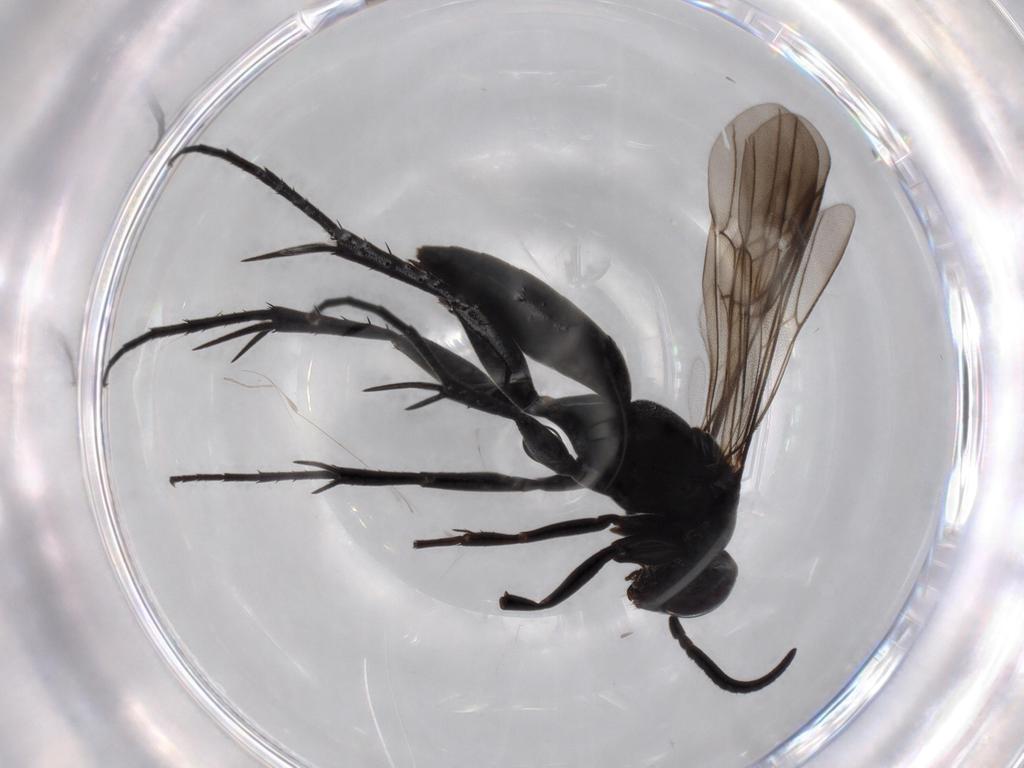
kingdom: Animalia
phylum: Arthropoda
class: Insecta
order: Hymenoptera
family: Pompilidae
